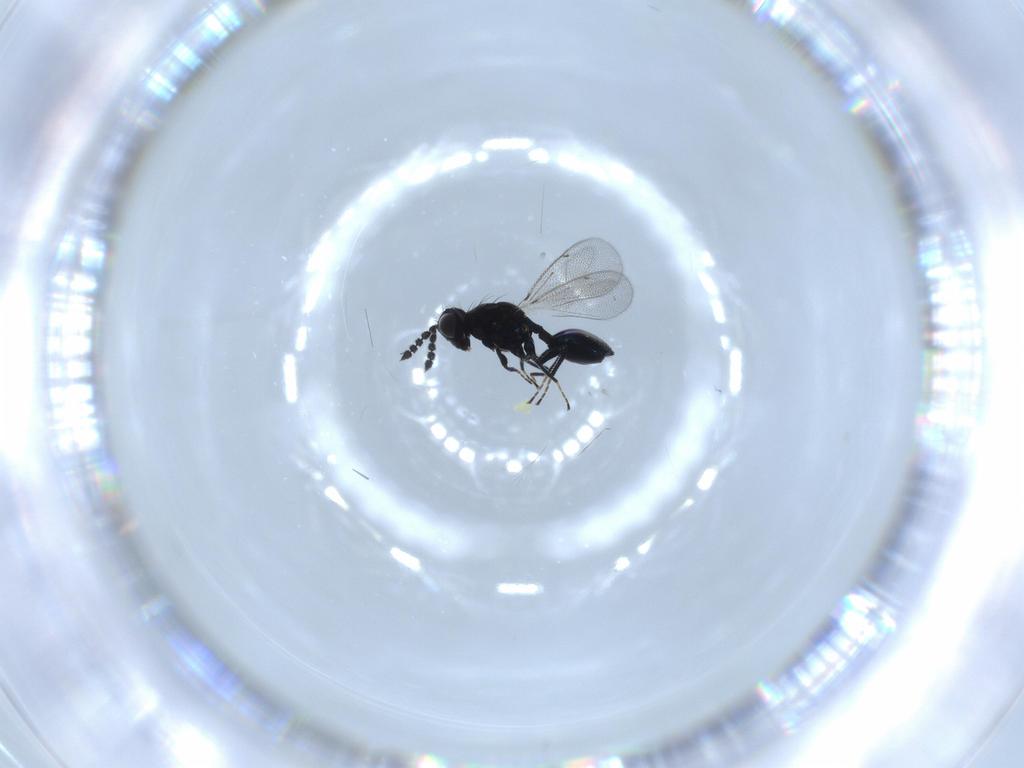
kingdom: Animalia
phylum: Arthropoda
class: Insecta
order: Hymenoptera
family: Eulophidae
